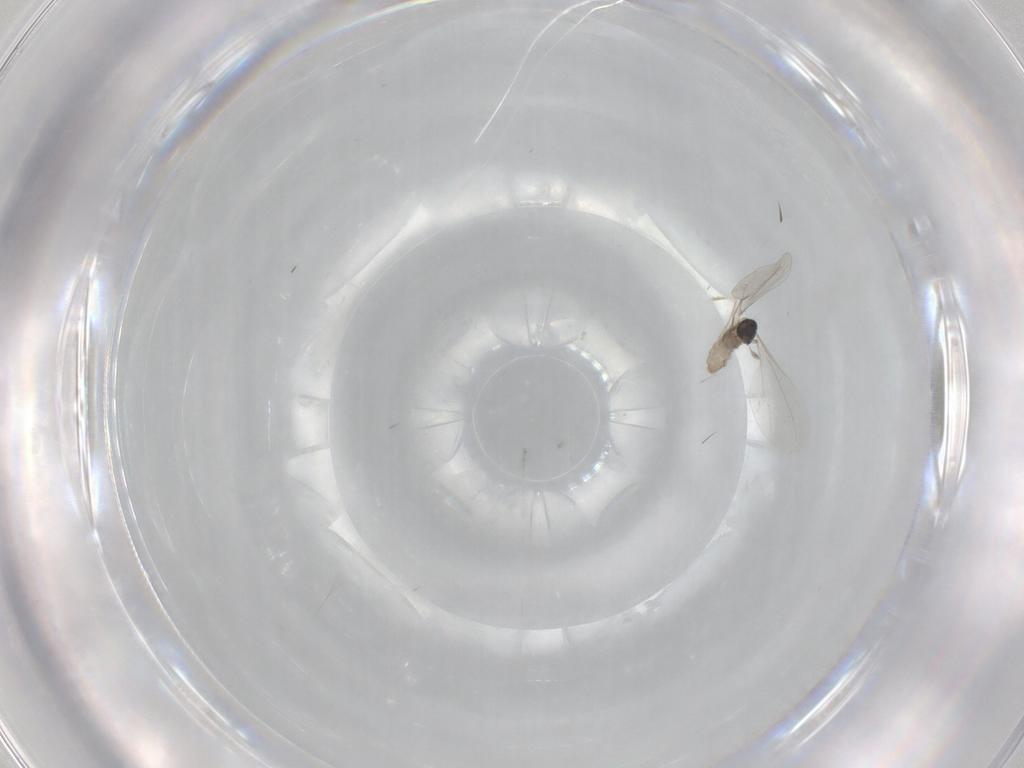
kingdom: Animalia
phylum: Arthropoda
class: Insecta
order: Diptera
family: Cecidomyiidae
